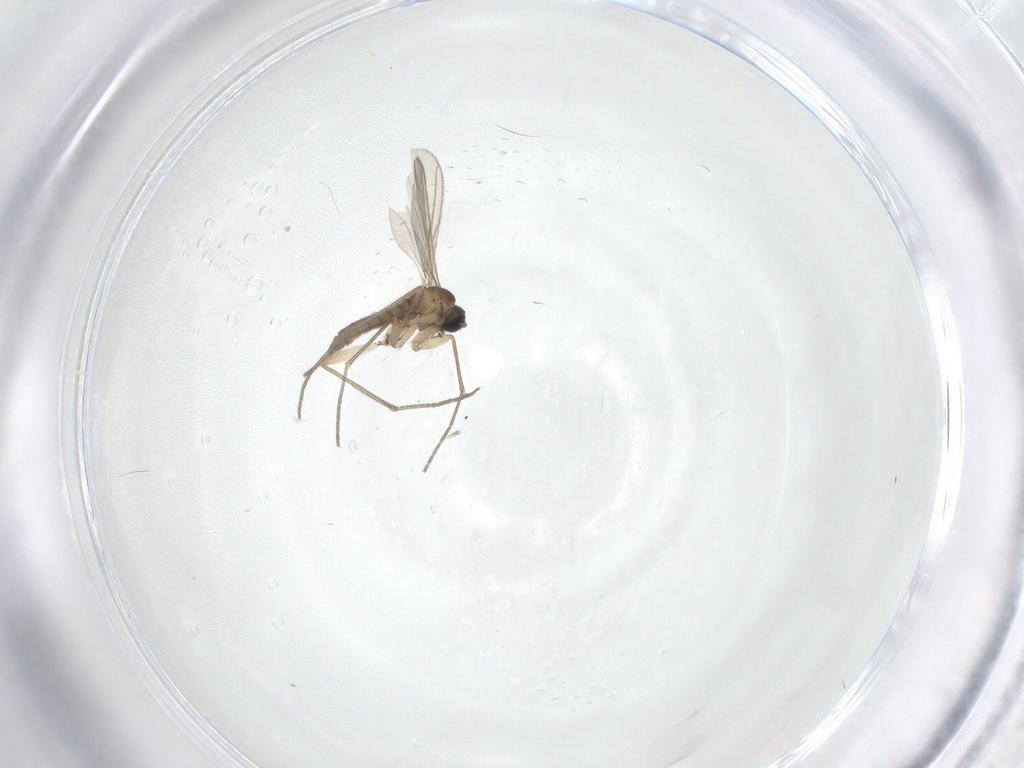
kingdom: Animalia
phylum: Arthropoda
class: Insecta
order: Diptera
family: Sciaridae
